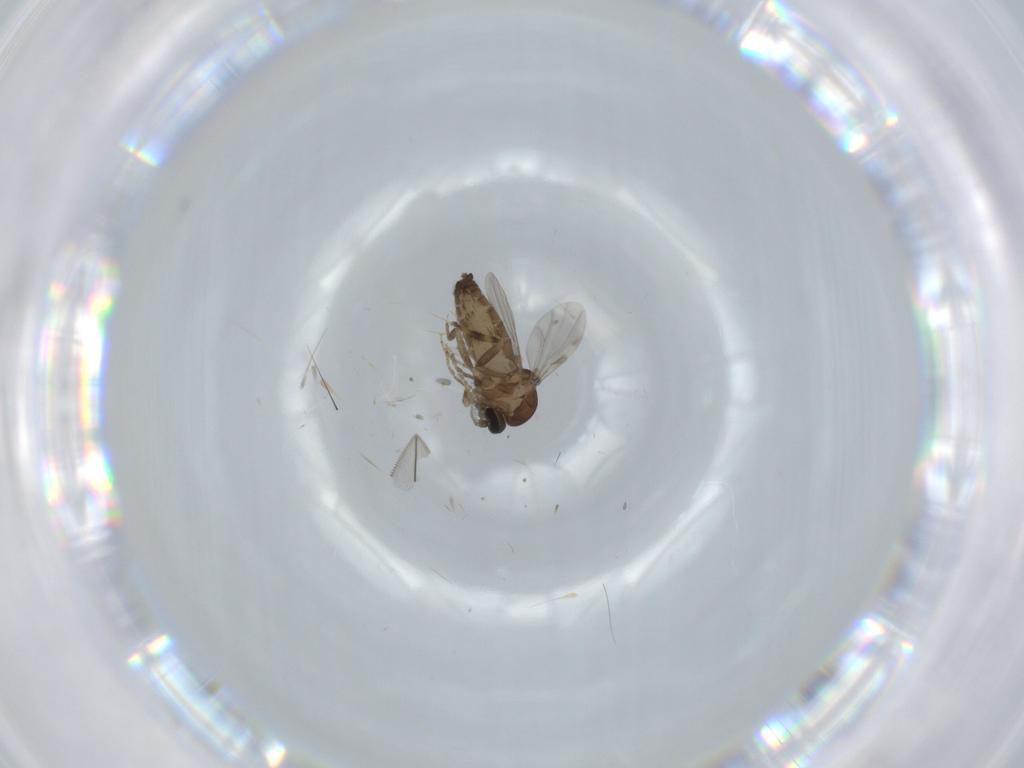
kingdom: Animalia
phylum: Arthropoda
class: Insecta
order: Diptera
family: Ceratopogonidae
